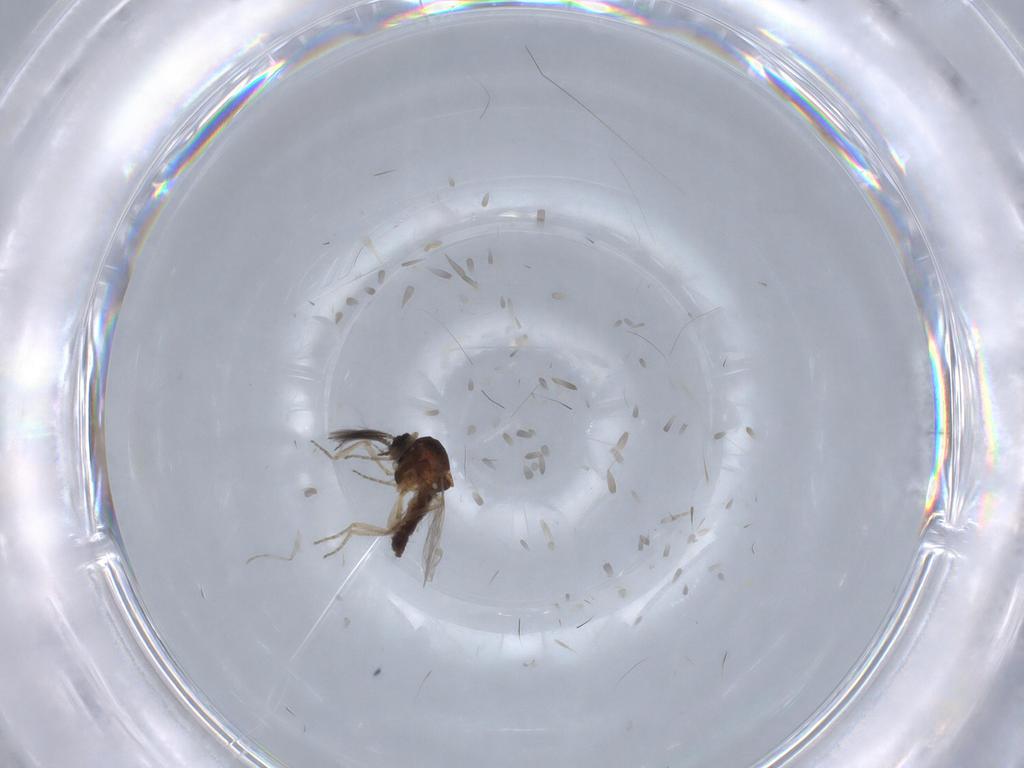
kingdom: Animalia
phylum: Arthropoda
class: Insecta
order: Diptera
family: Ceratopogonidae
